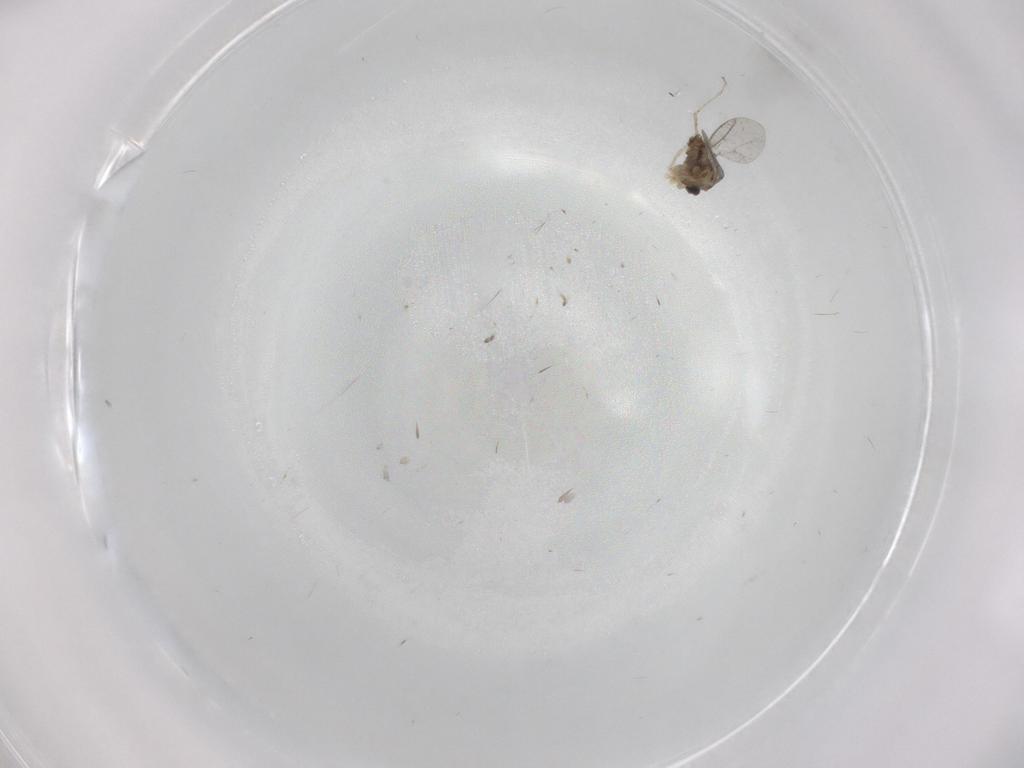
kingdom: Animalia
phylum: Arthropoda
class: Insecta
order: Diptera
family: Cecidomyiidae
